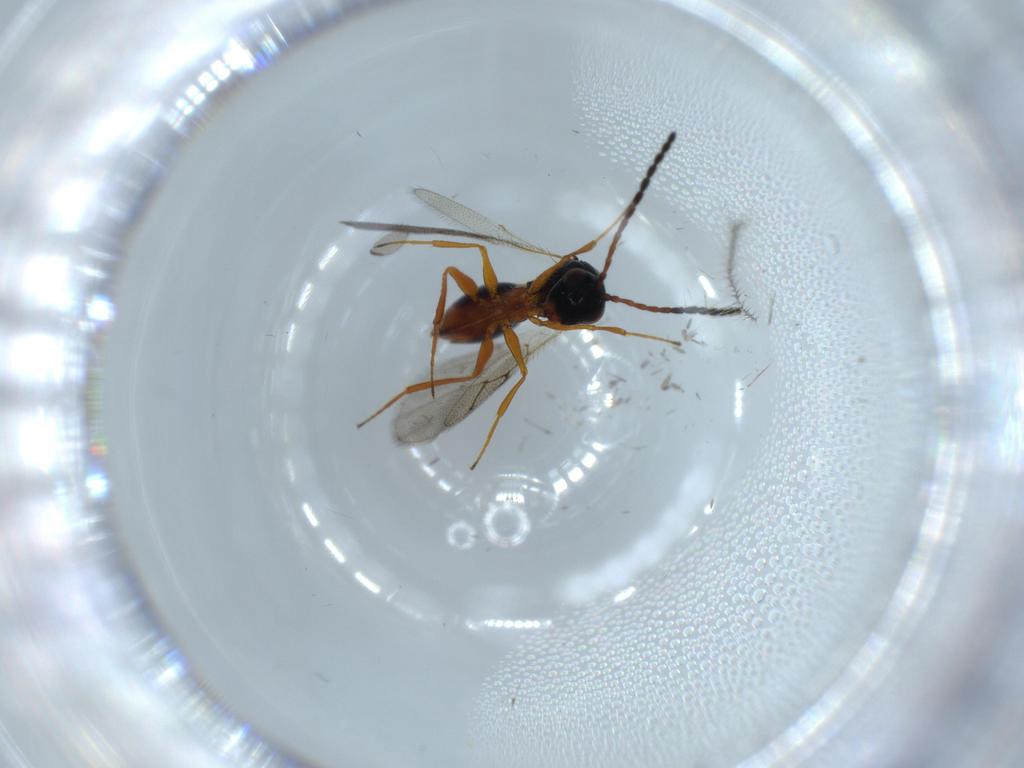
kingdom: Animalia
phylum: Arthropoda
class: Insecta
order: Hymenoptera
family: Figitidae
